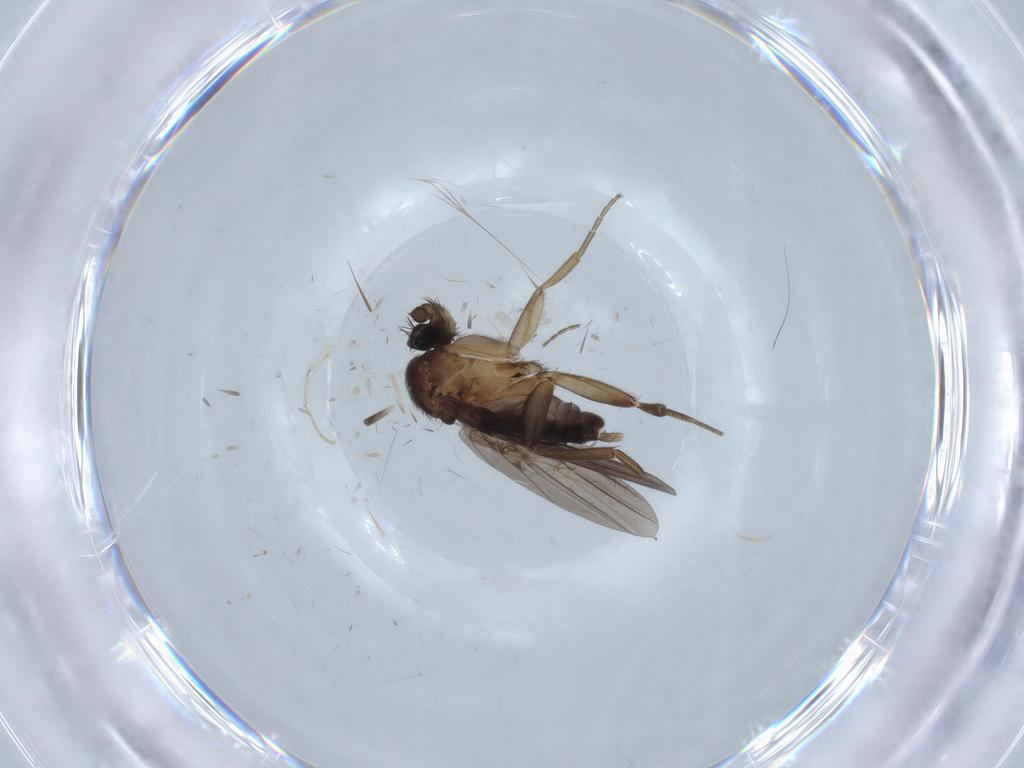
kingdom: Animalia
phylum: Arthropoda
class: Insecta
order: Diptera
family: Psychodidae
